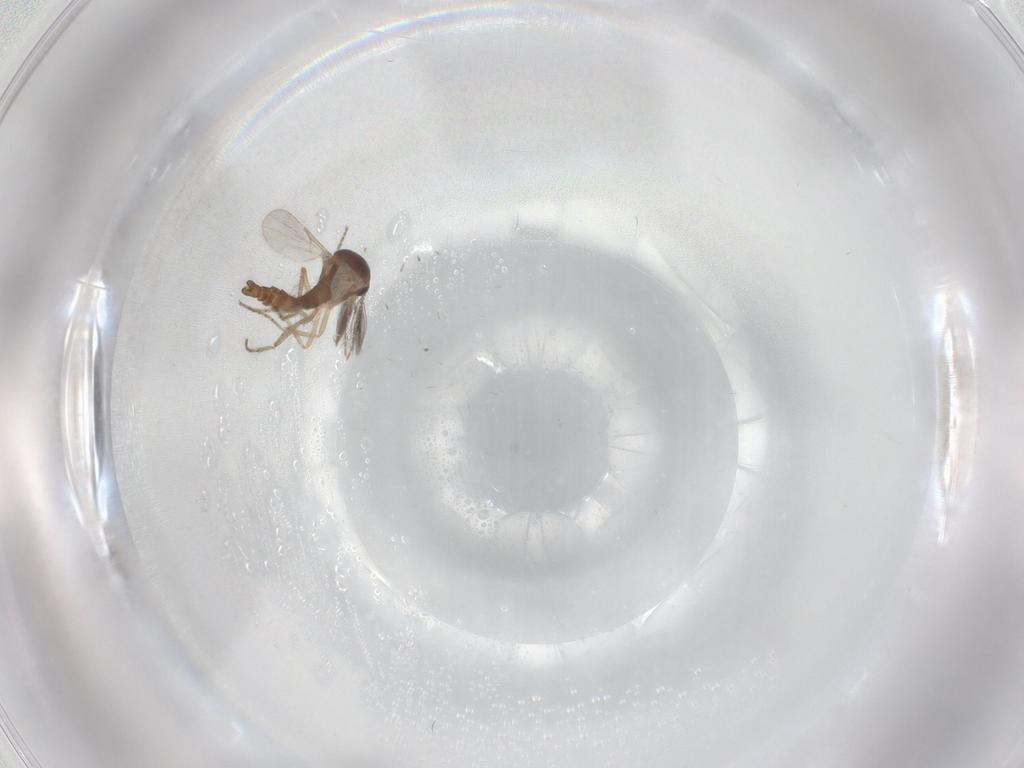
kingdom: Animalia
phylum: Arthropoda
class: Insecta
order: Diptera
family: Ceratopogonidae
